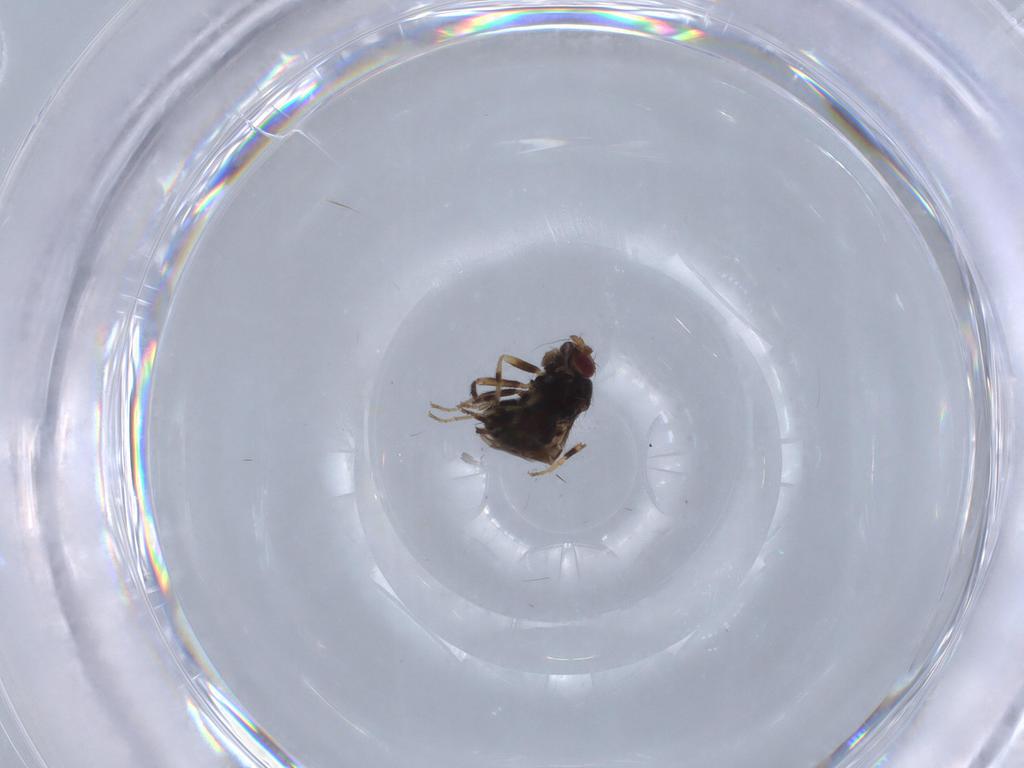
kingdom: Animalia
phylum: Arthropoda
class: Insecta
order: Diptera
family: Sphaeroceridae
